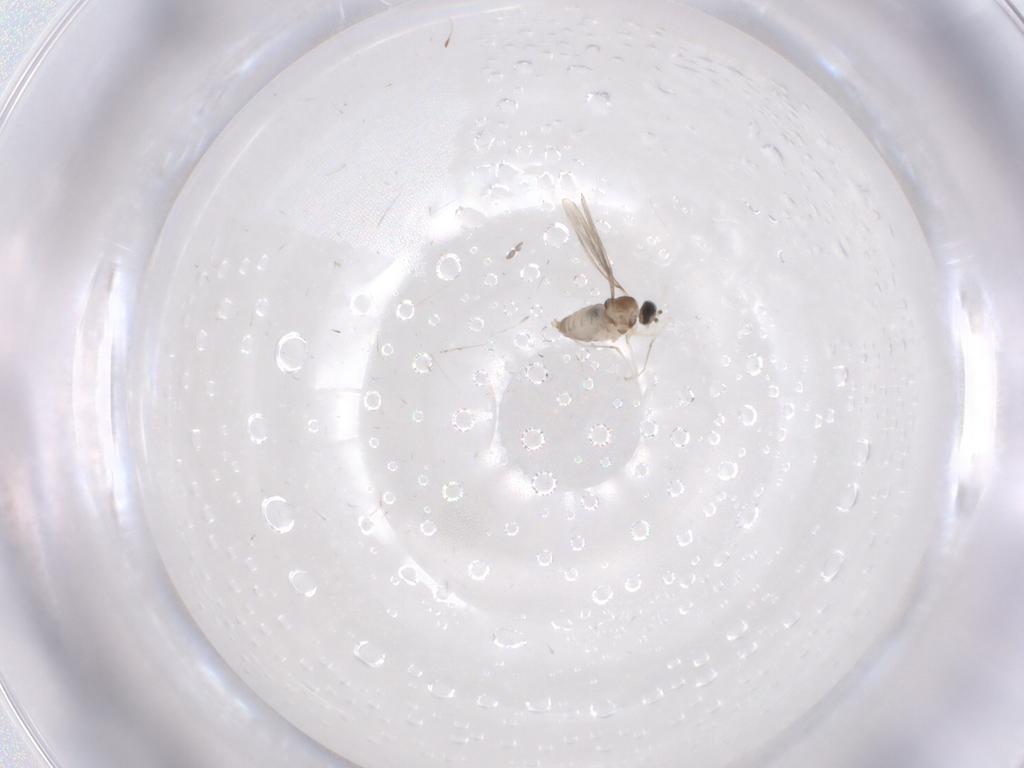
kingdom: Animalia
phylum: Arthropoda
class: Insecta
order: Diptera
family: Cecidomyiidae
